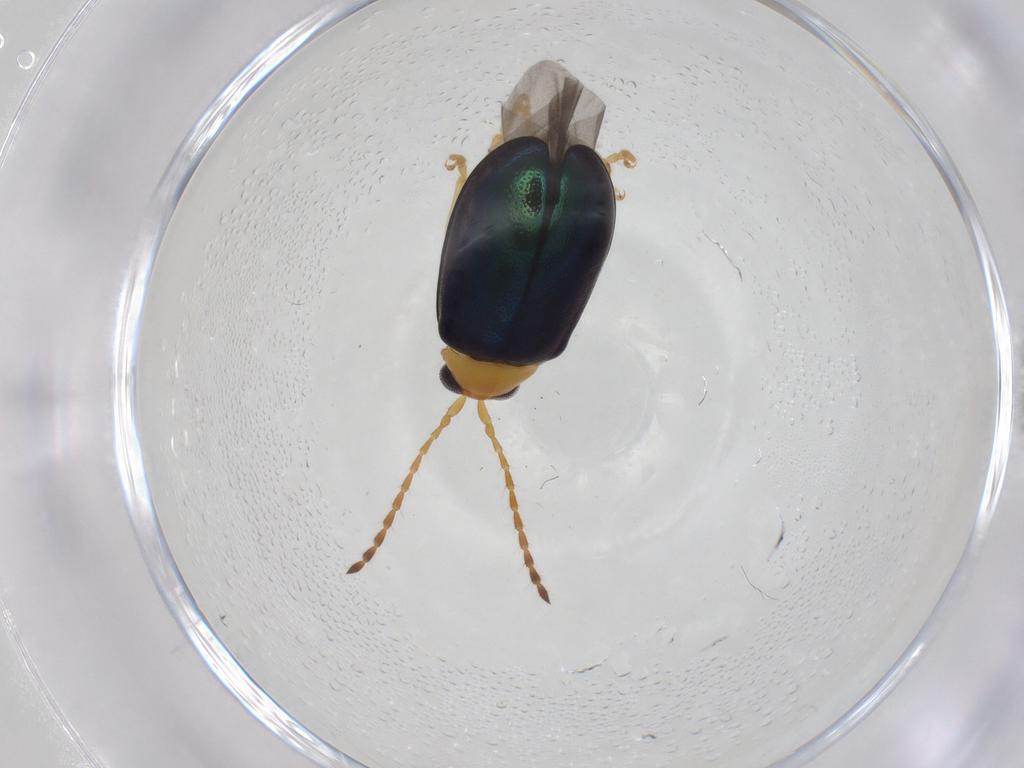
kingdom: Animalia
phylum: Arthropoda
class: Insecta
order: Coleoptera
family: Chrysomelidae
